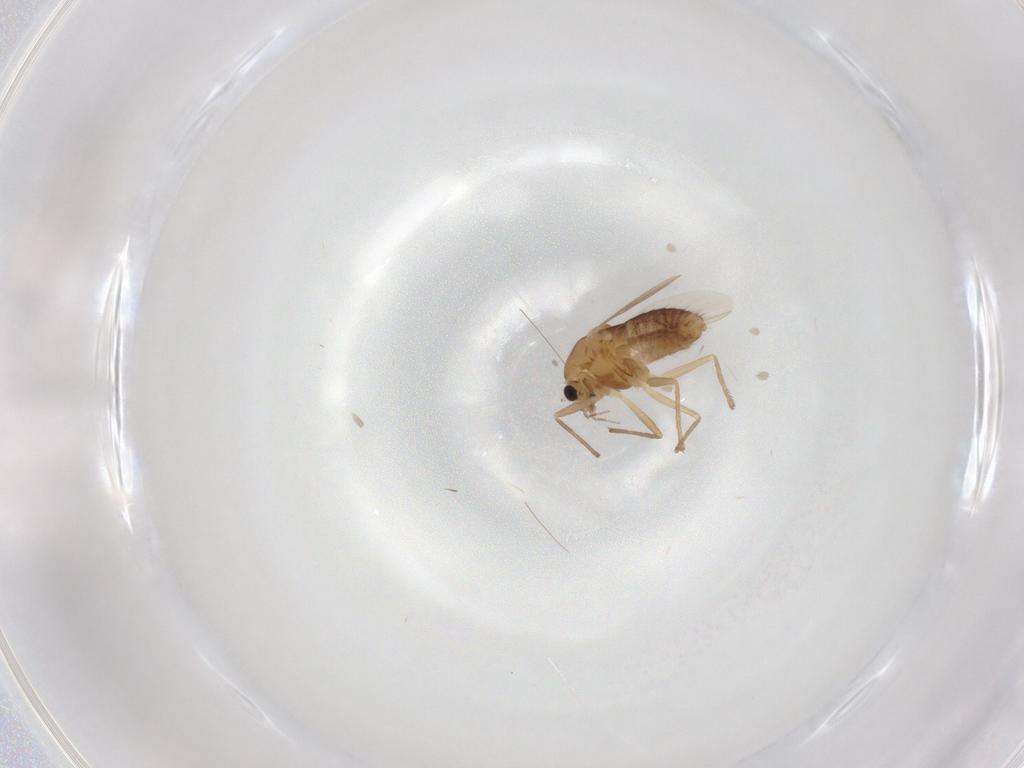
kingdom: Animalia
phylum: Arthropoda
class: Insecta
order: Diptera
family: Chironomidae
